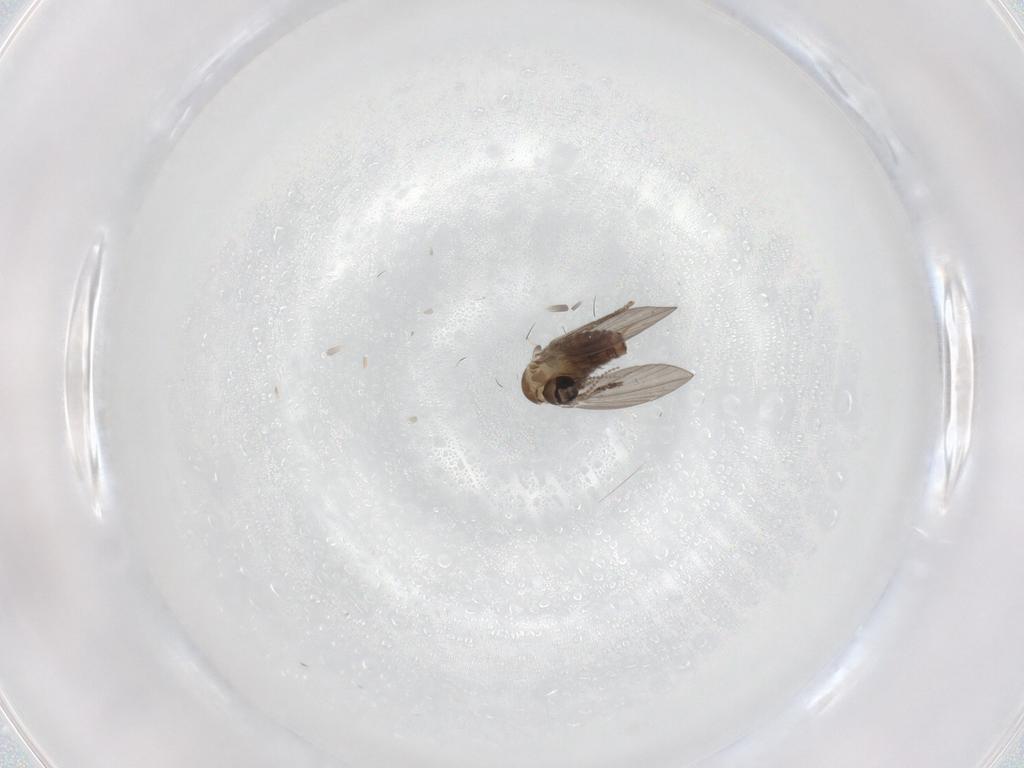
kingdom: Animalia
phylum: Arthropoda
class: Insecta
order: Diptera
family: Psychodidae
